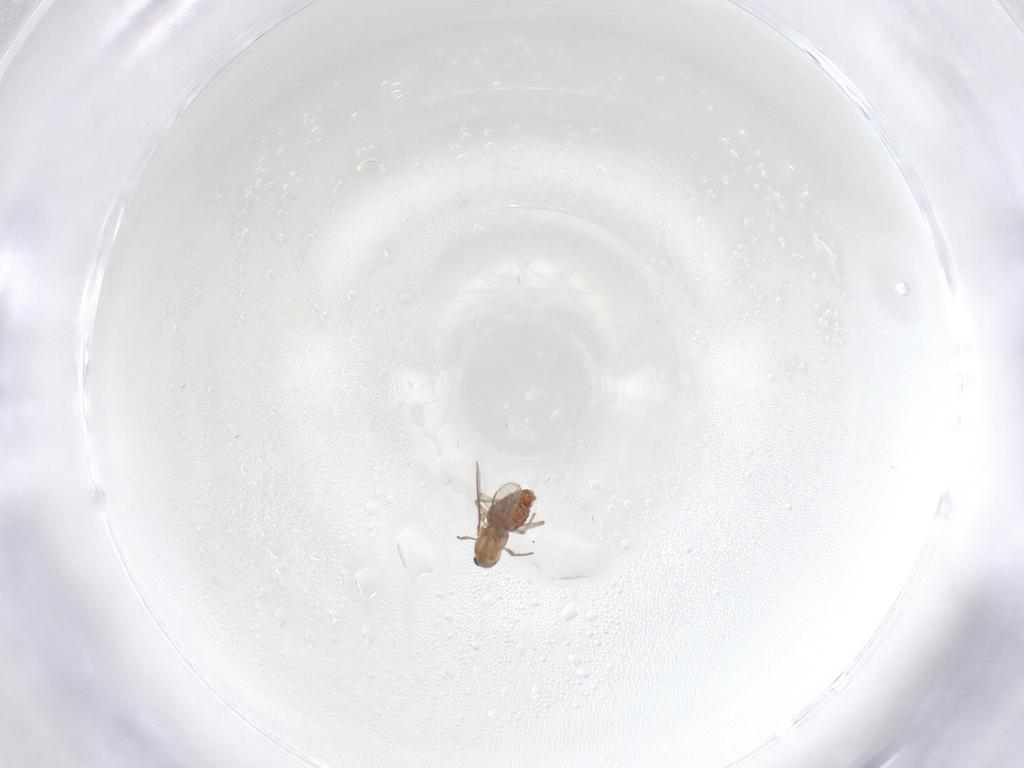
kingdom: Animalia
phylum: Arthropoda
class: Insecta
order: Diptera
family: Chironomidae
